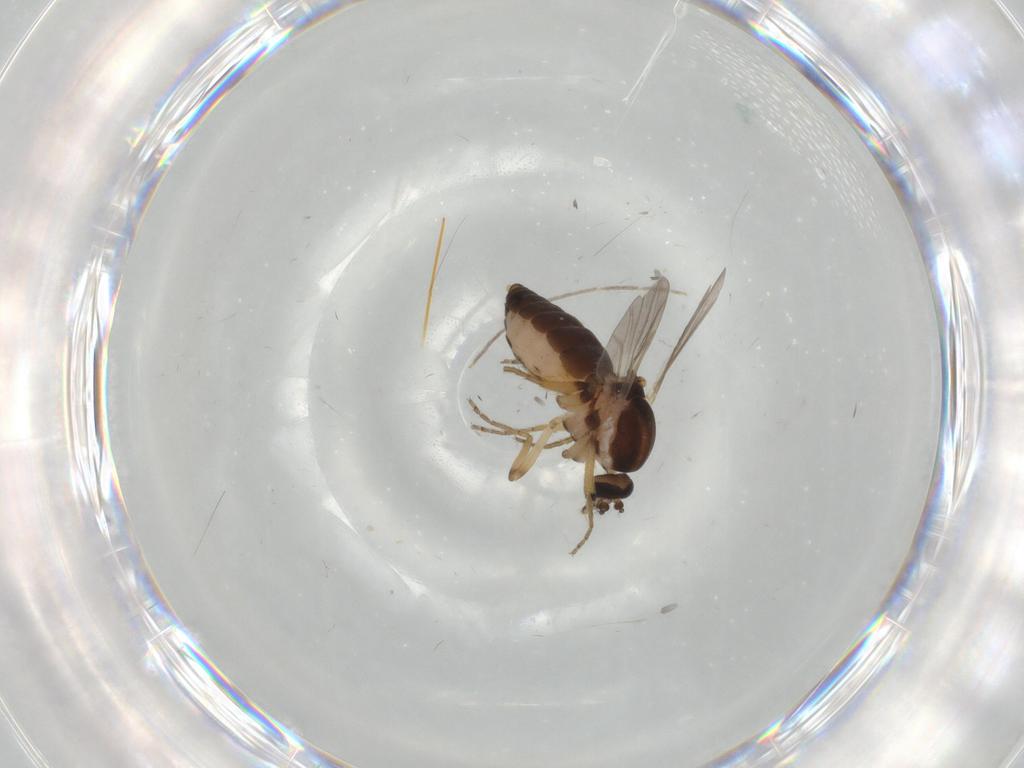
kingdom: Animalia
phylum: Arthropoda
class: Insecta
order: Diptera
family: Ceratopogonidae
